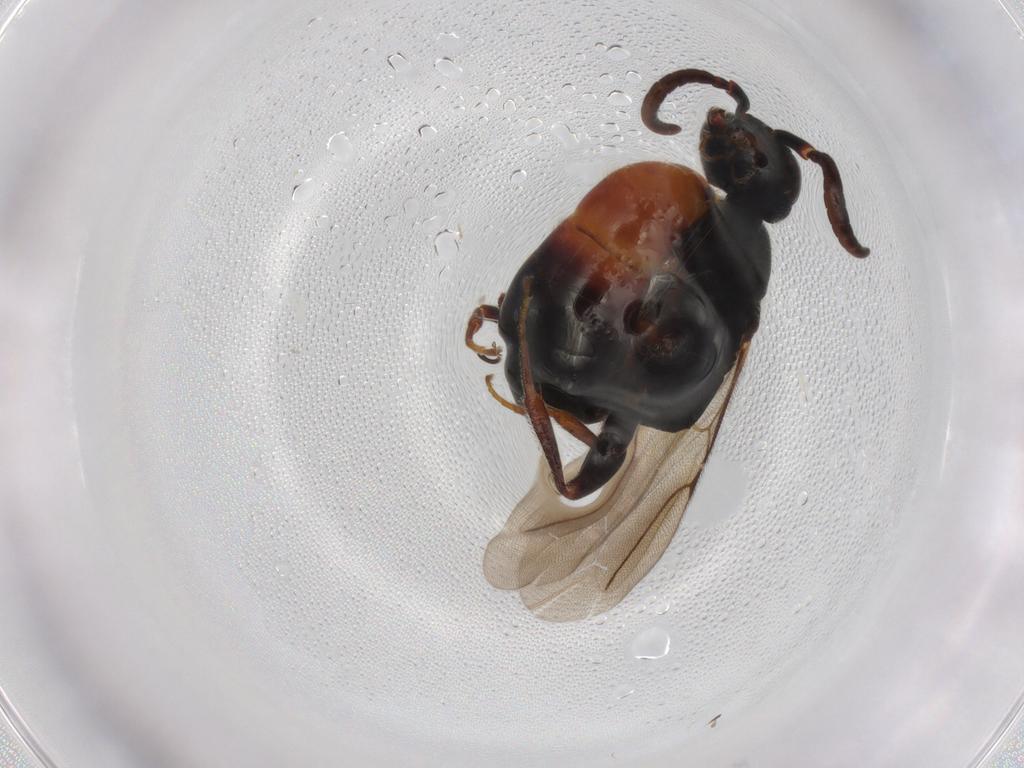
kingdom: Animalia
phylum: Arthropoda
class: Insecta
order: Hymenoptera
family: Bethylidae
